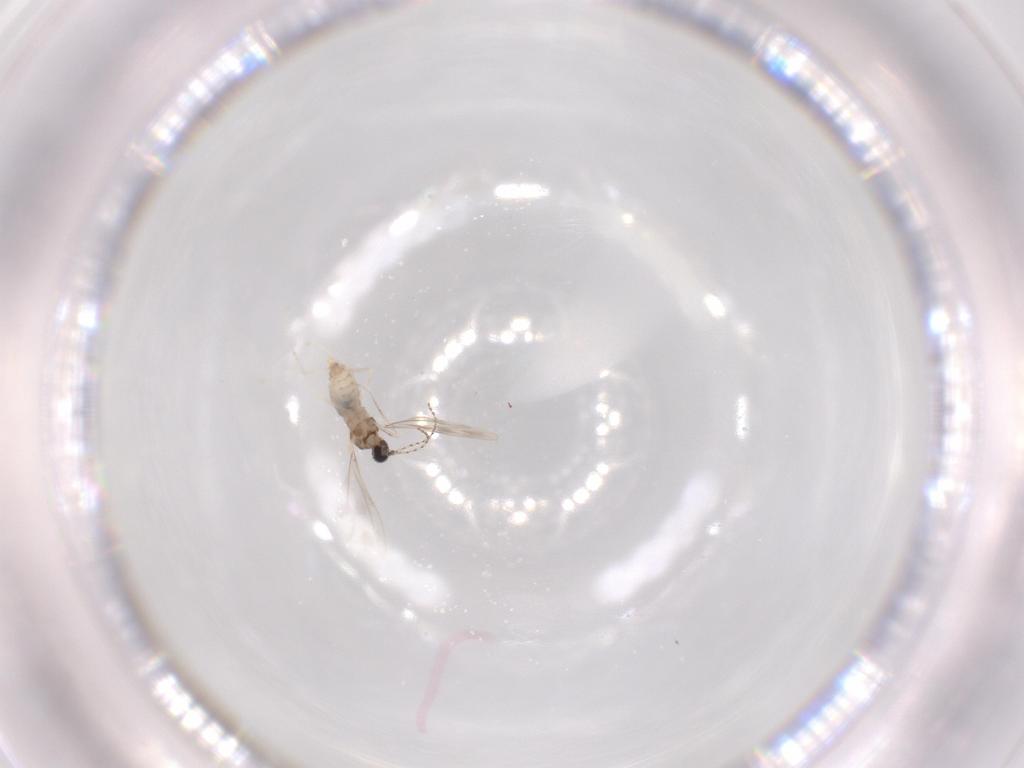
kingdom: Animalia
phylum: Arthropoda
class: Insecta
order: Diptera
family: Cecidomyiidae
